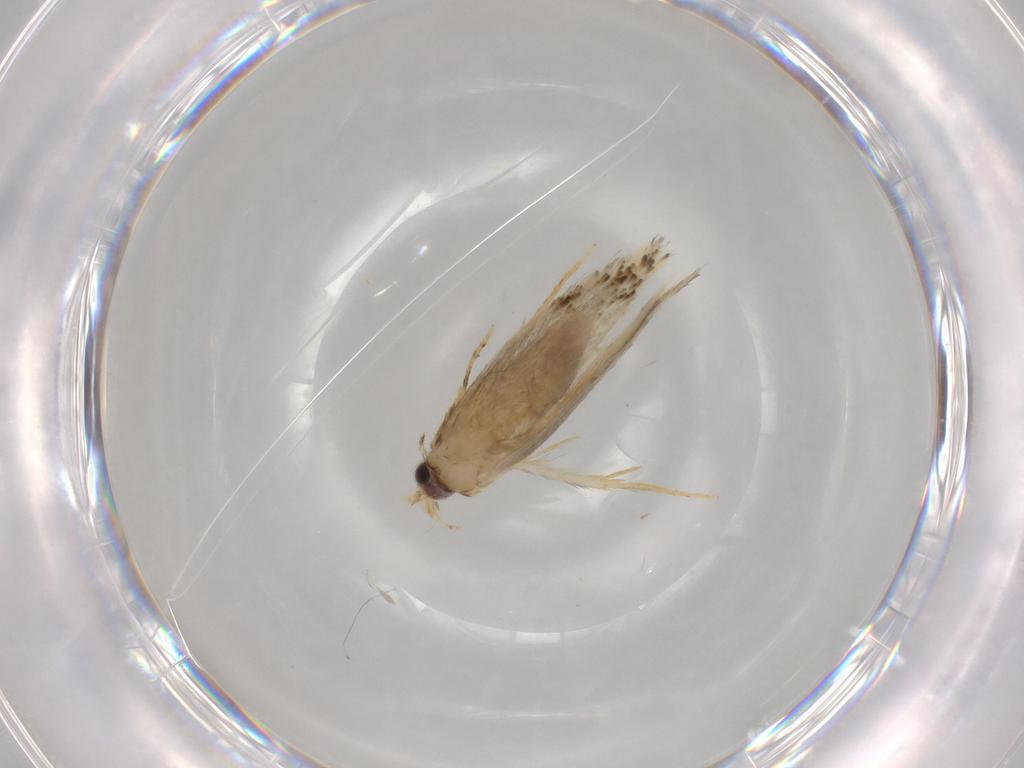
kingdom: Animalia
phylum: Arthropoda
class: Insecta
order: Lepidoptera
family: Nepticulidae
